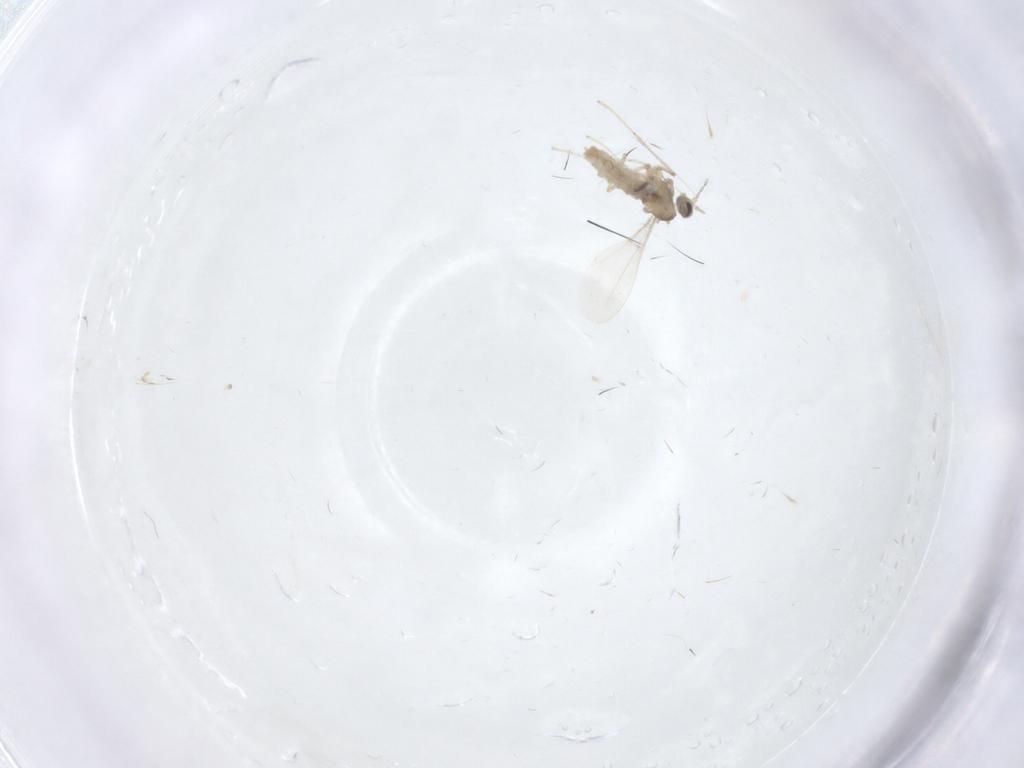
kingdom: Animalia
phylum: Arthropoda
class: Insecta
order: Diptera
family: Cecidomyiidae
